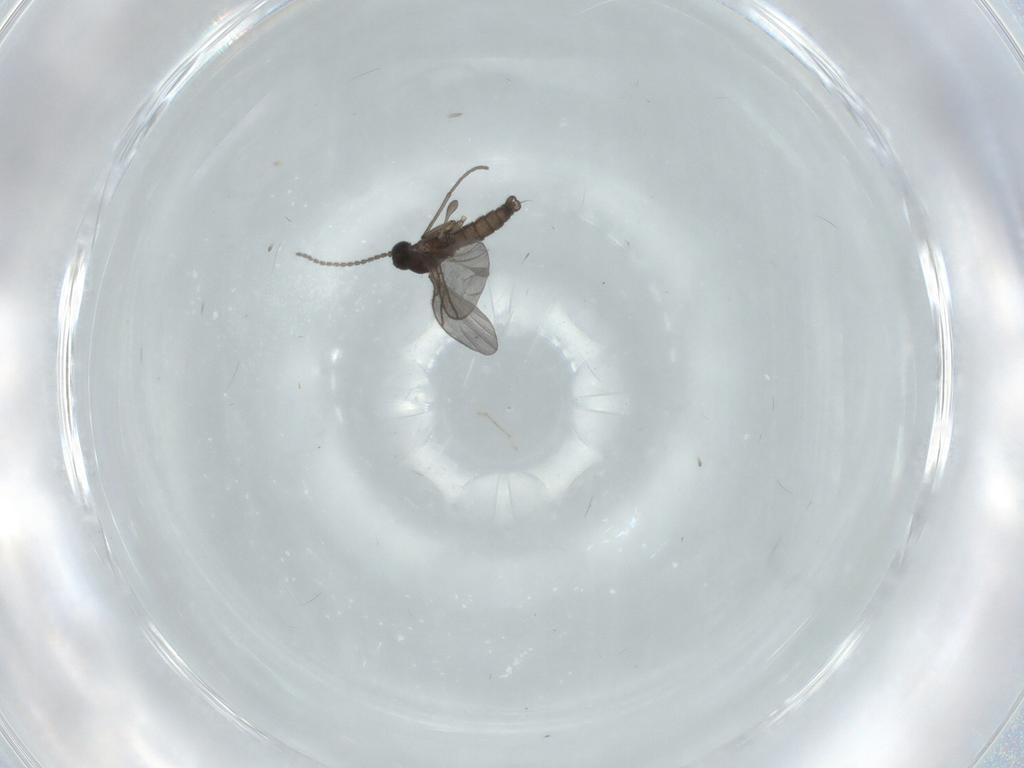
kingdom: Animalia
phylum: Arthropoda
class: Insecta
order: Diptera
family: Sciaridae
